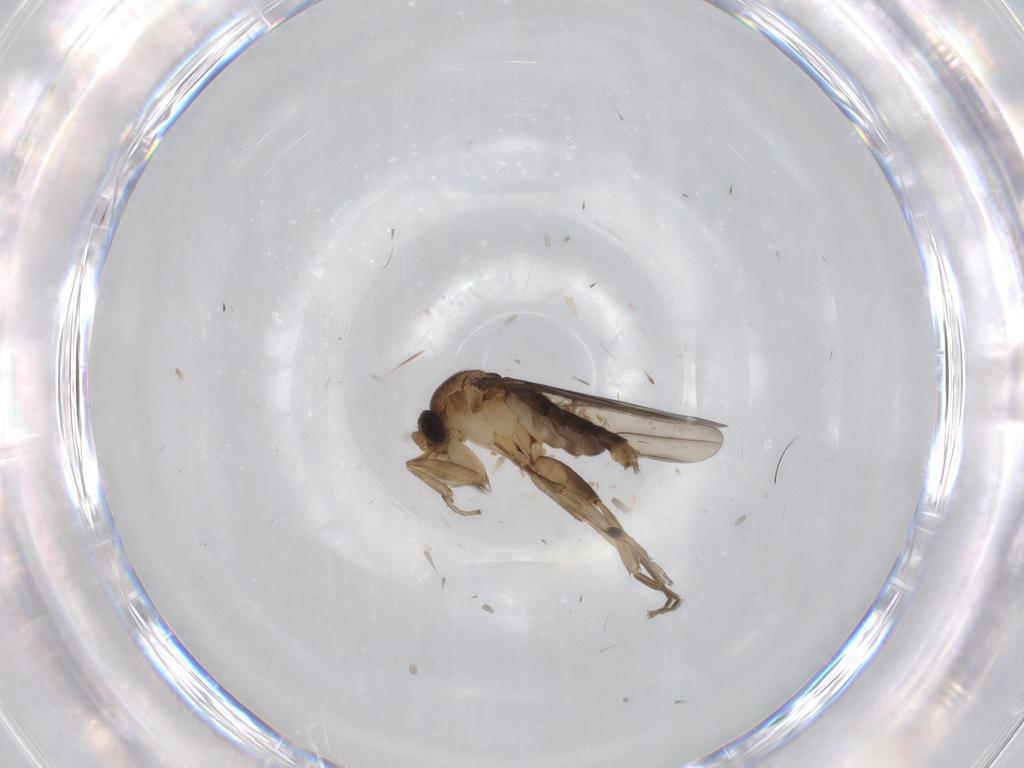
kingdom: Animalia
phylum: Arthropoda
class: Insecta
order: Diptera
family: Phoridae
